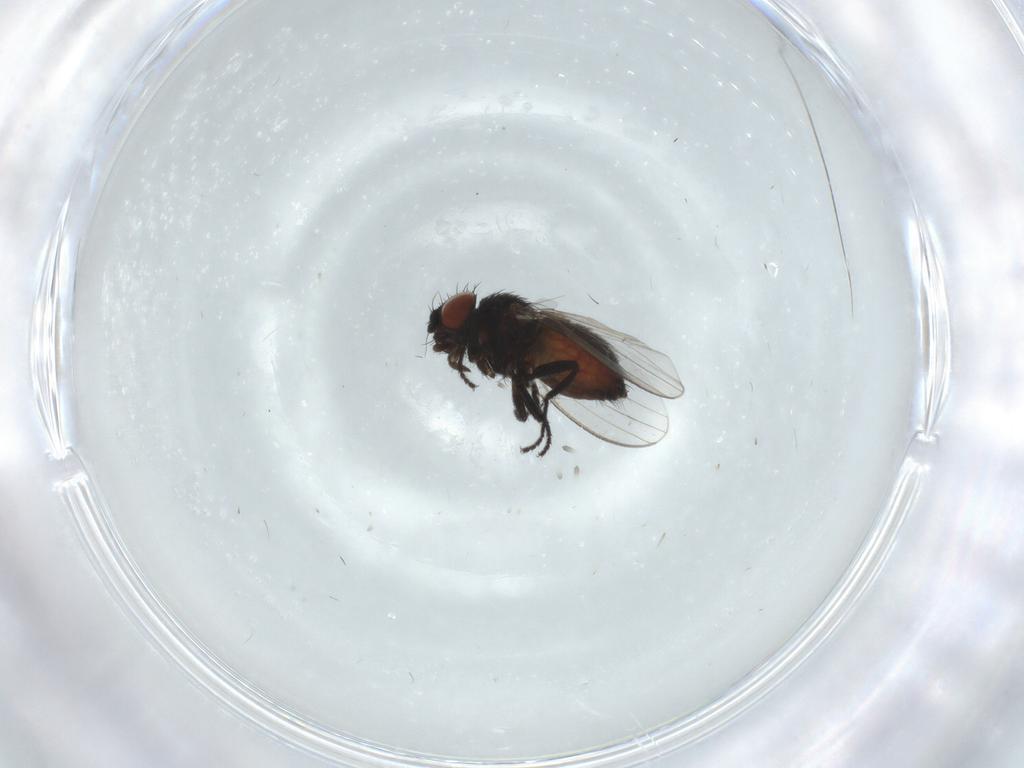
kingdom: Animalia
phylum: Arthropoda
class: Insecta
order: Diptera
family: Milichiidae
